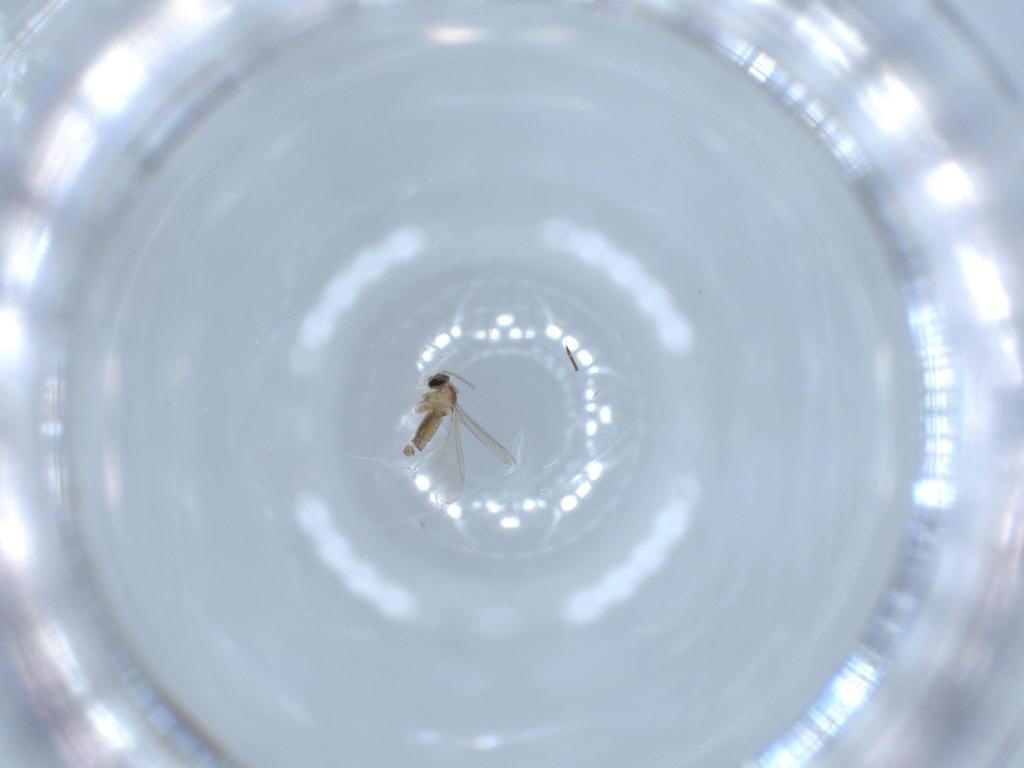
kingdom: Animalia
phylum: Arthropoda
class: Insecta
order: Diptera
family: Cecidomyiidae
